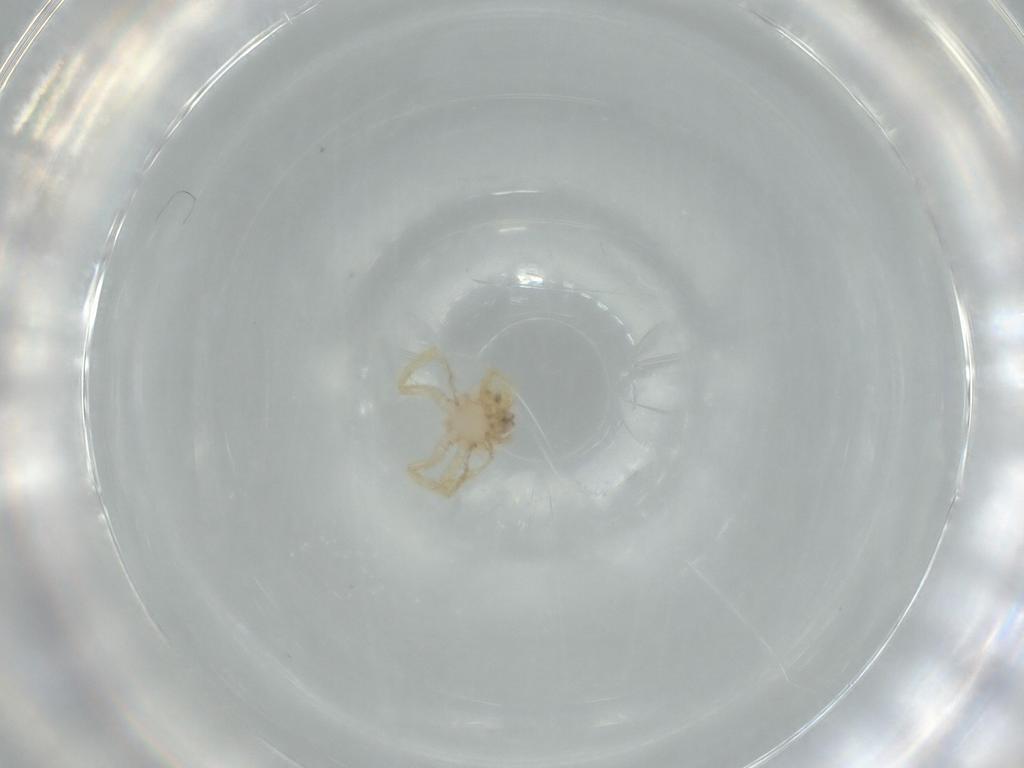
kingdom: Animalia
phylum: Arthropoda
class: Arachnida
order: Araneae
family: Oonopidae
